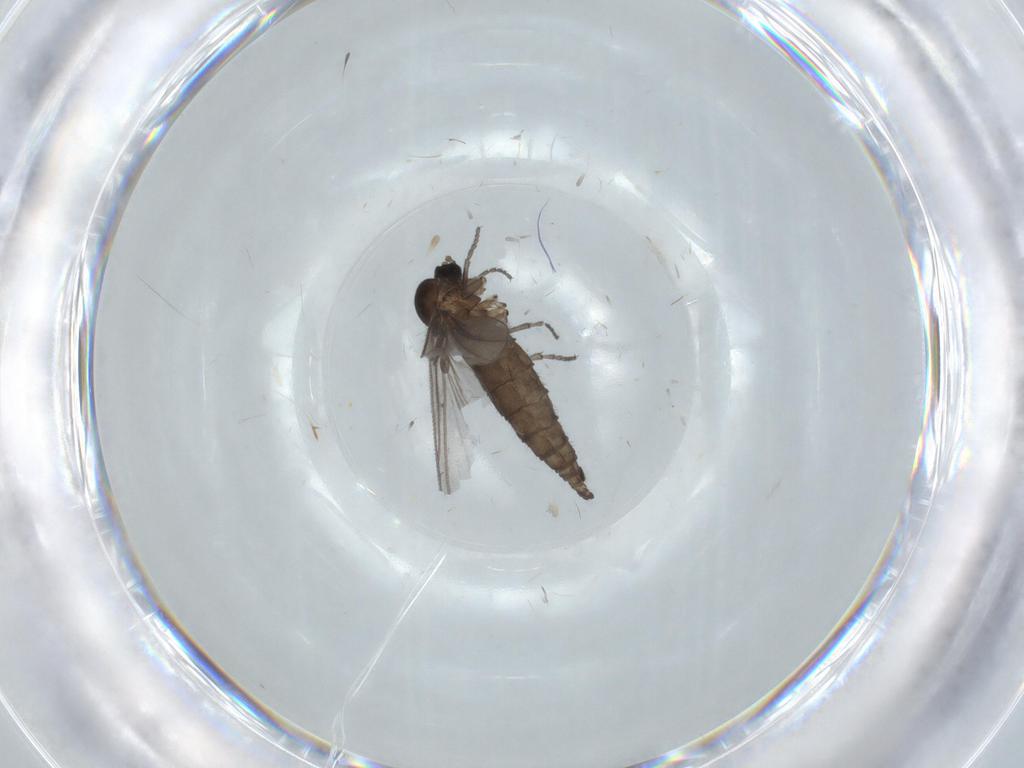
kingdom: Animalia
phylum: Arthropoda
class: Insecta
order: Diptera
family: Sciaridae
